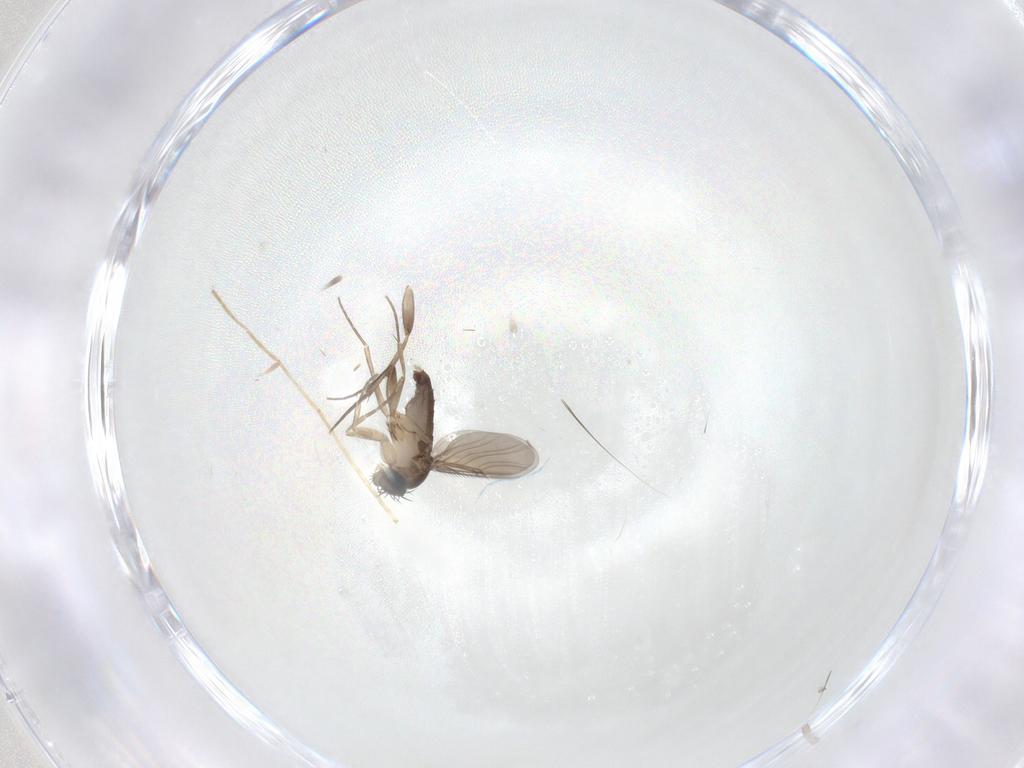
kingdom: Animalia
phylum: Arthropoda
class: Insecta
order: Diptera
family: Phoridae
